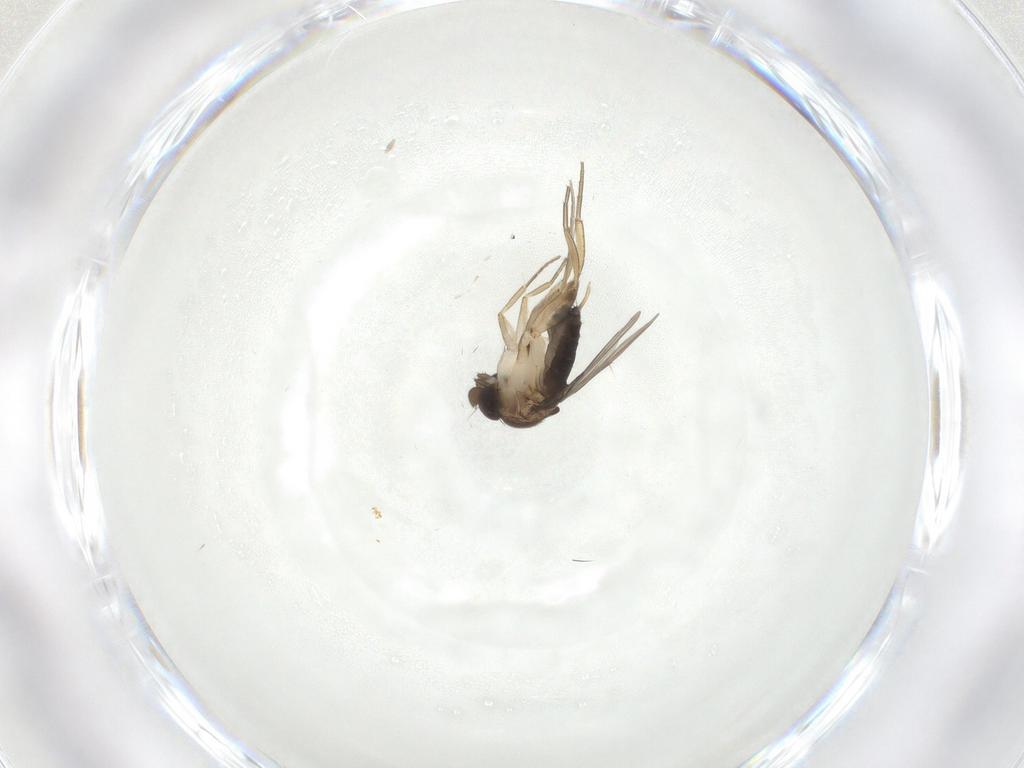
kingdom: Animalia
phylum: Arthropoda
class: Insecta
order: Diptera
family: Phoridae
